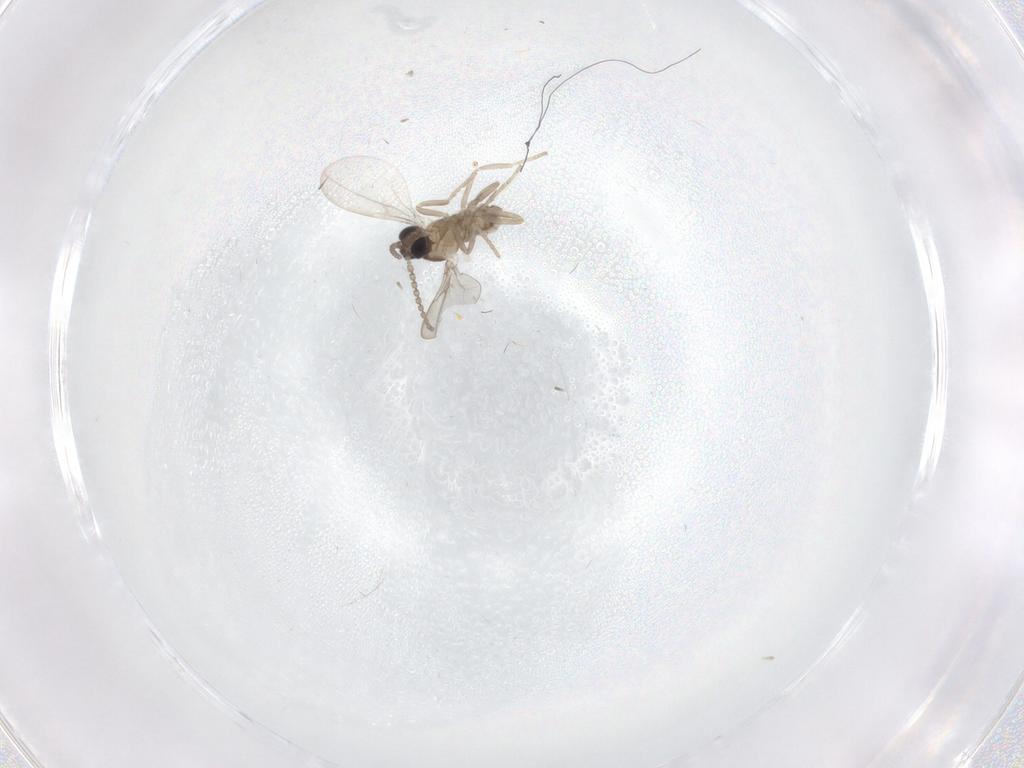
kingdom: Animalia
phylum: Arthropoda
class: Insecta
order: Diptera
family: Cecidomyiidae
